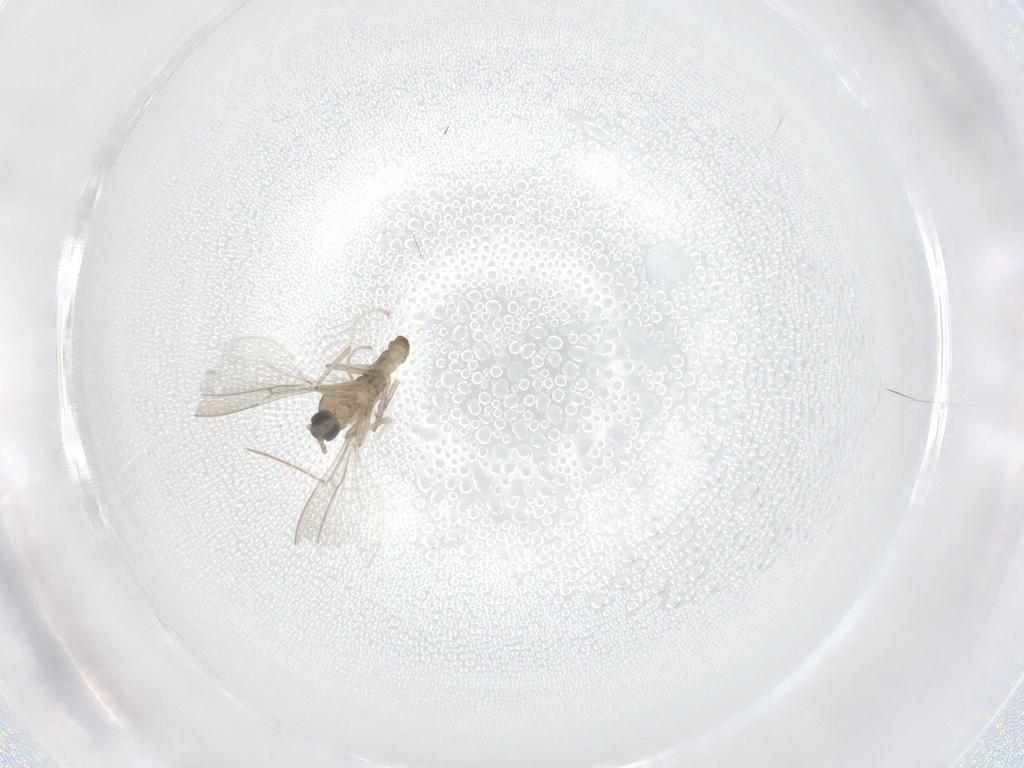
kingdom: Animalia
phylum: Arthropoda
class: Insecta
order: Diptera
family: Cecidomyiidae
